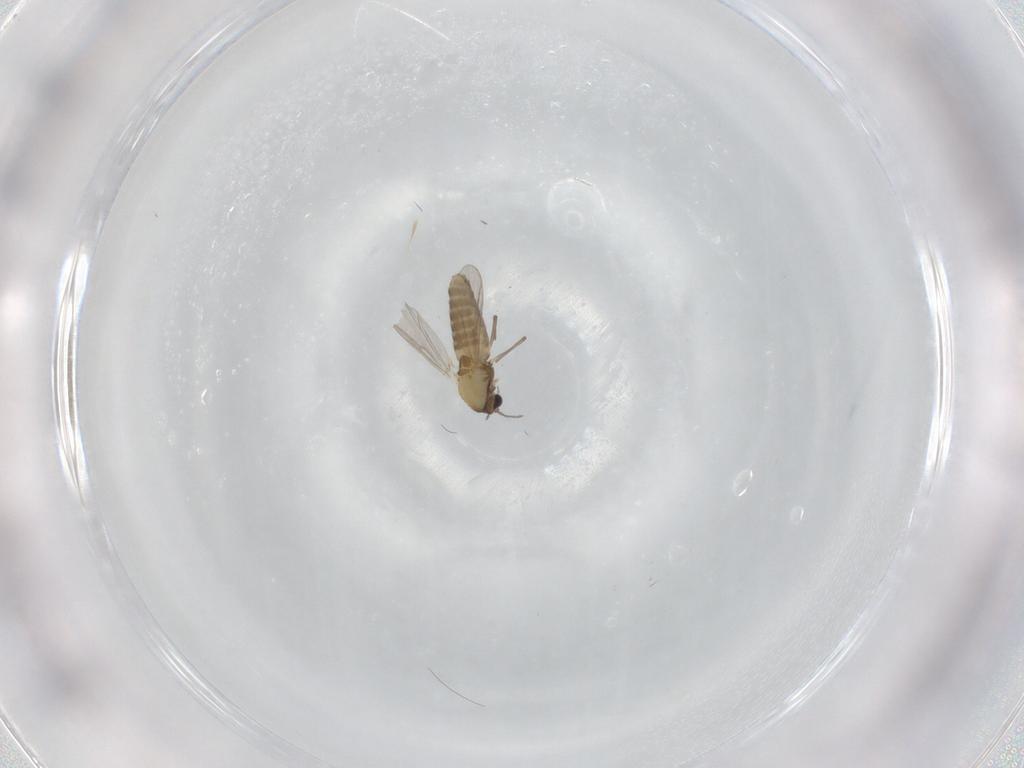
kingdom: Animalia
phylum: Arthropoda
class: Insecta
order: Diptera
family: Chironomidae
